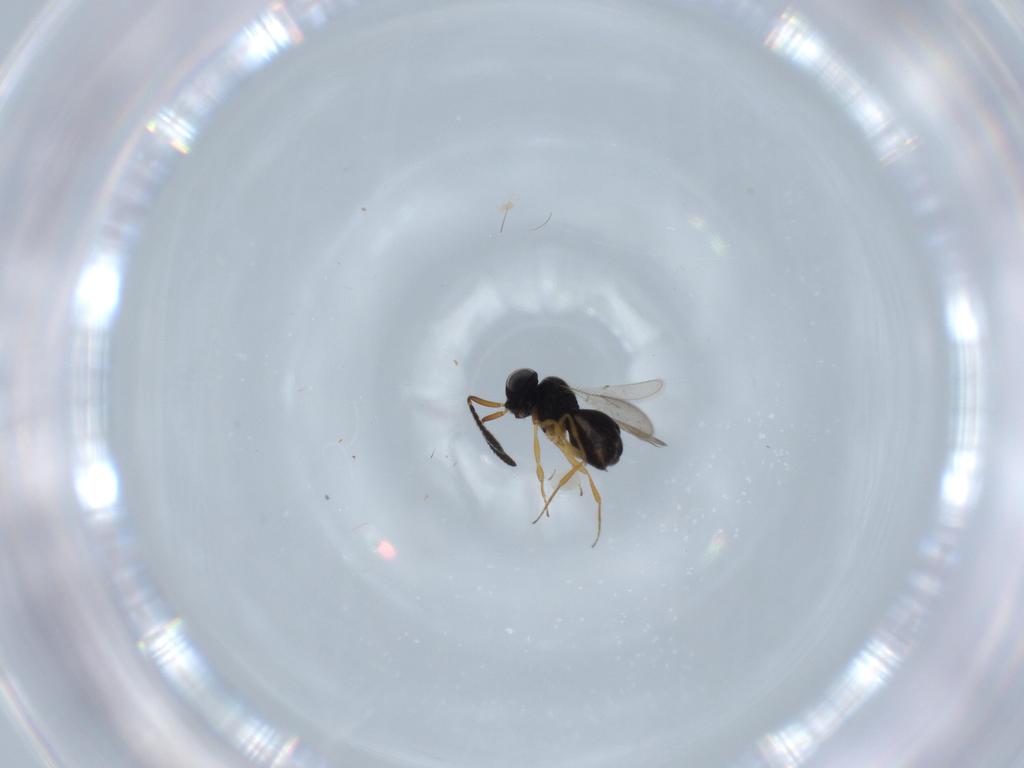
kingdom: Animalia
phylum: Arthropoda
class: Insecta
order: Hymenoptera
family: Scelionidae
